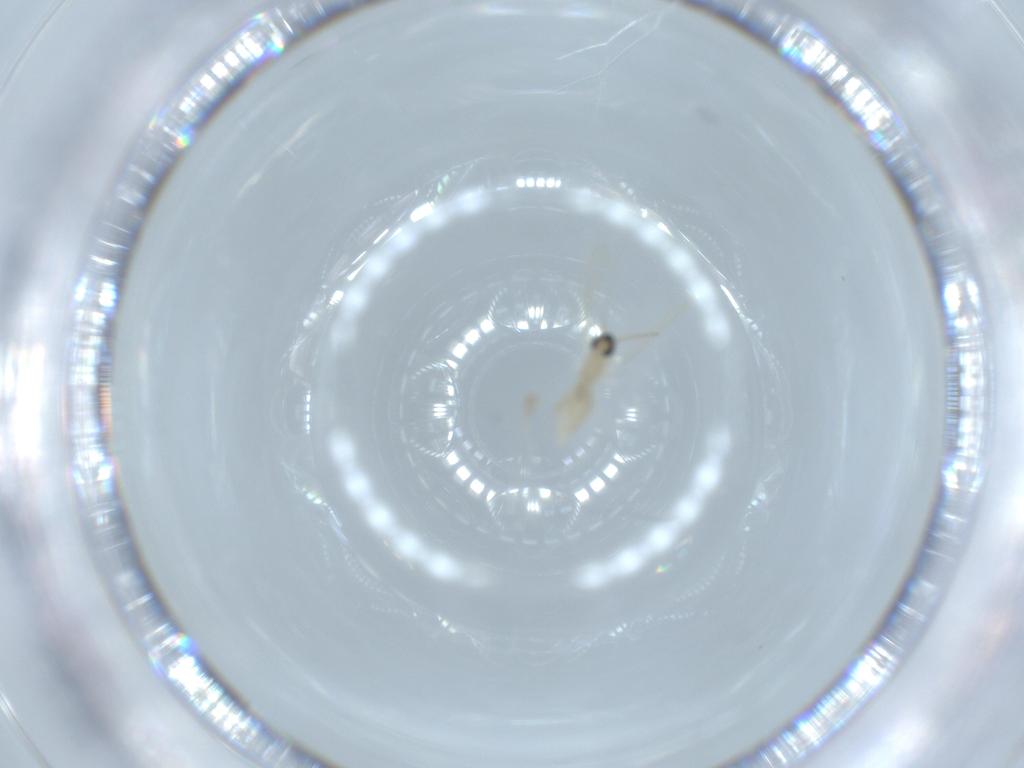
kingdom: Animalia
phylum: Arthropoda
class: Insecta
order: Diptera
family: Cecidomyiidae
